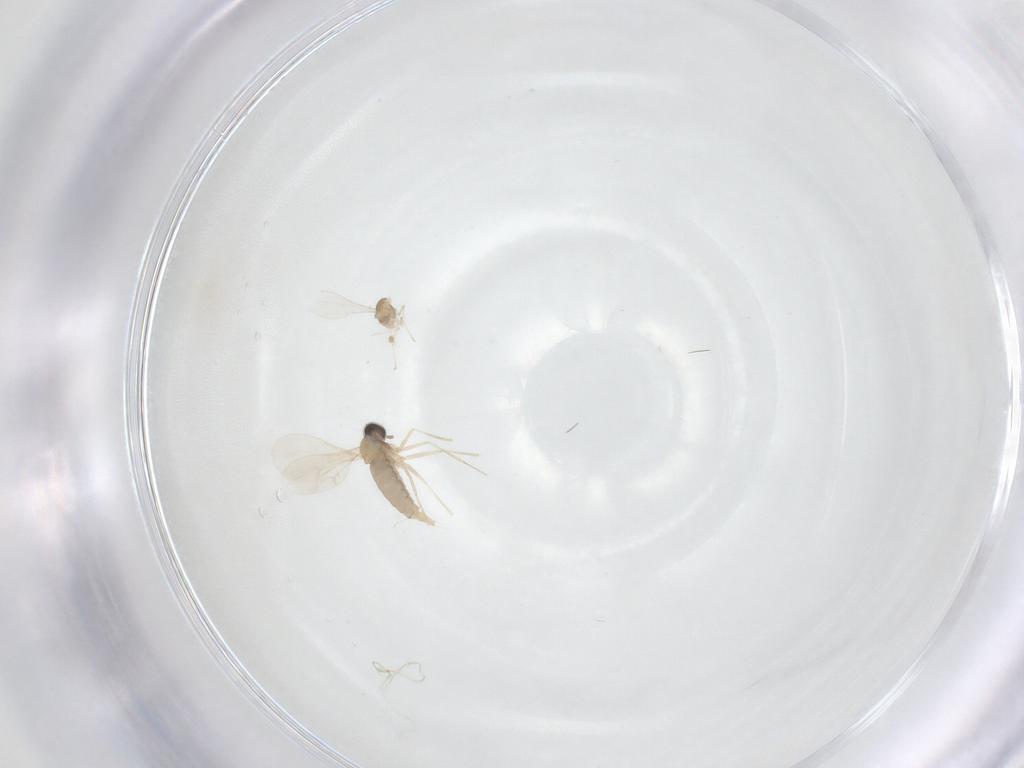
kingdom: Animalia
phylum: Arthropoda
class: Insecta
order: Diptera
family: Cecidomyiidae
